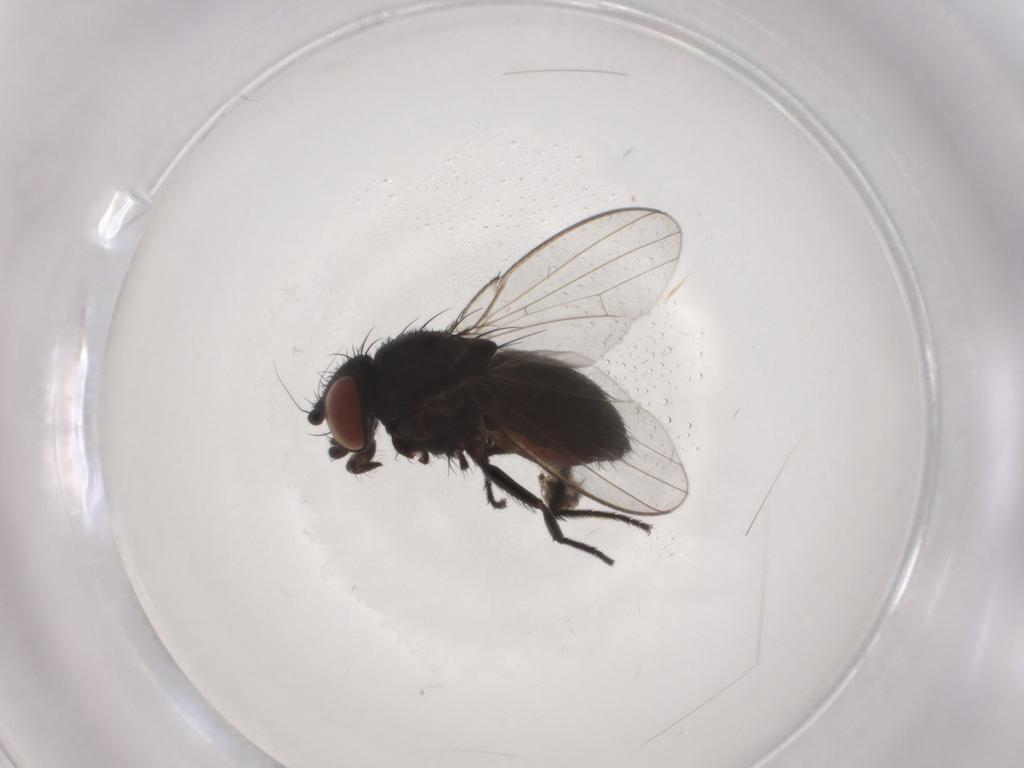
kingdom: Animalia
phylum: Arthropoda
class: Insecta
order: Diptera
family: Milichiidae
